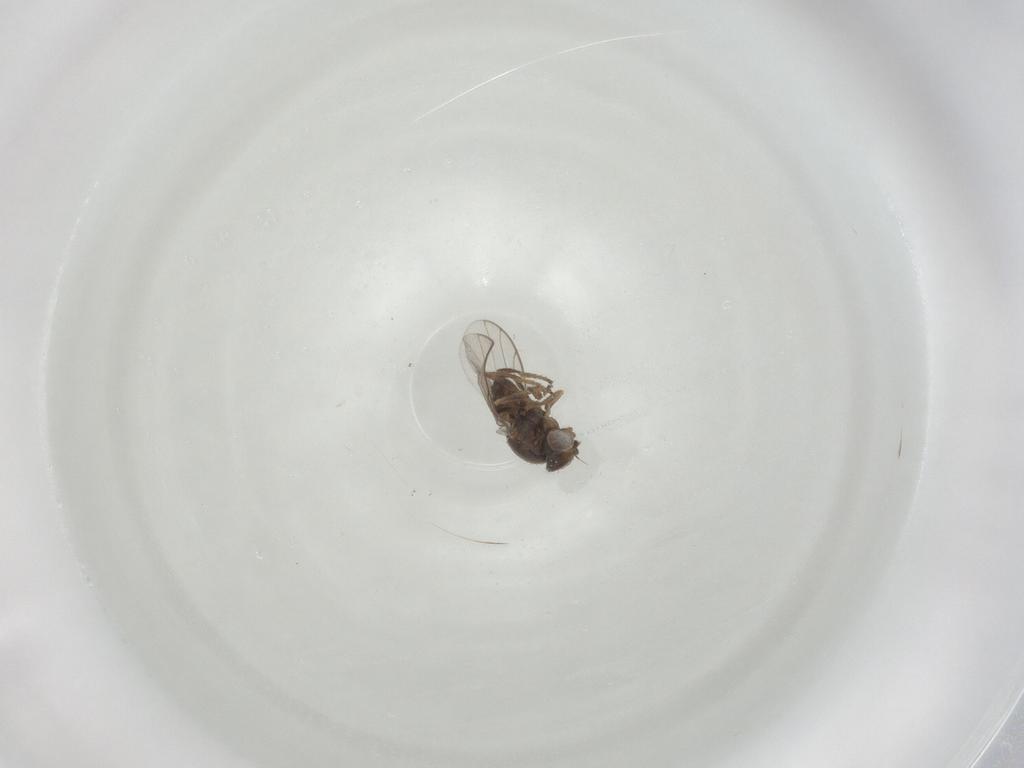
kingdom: Animalia
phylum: Arthropoda
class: Insecta
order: Diptera
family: Chloropidae
